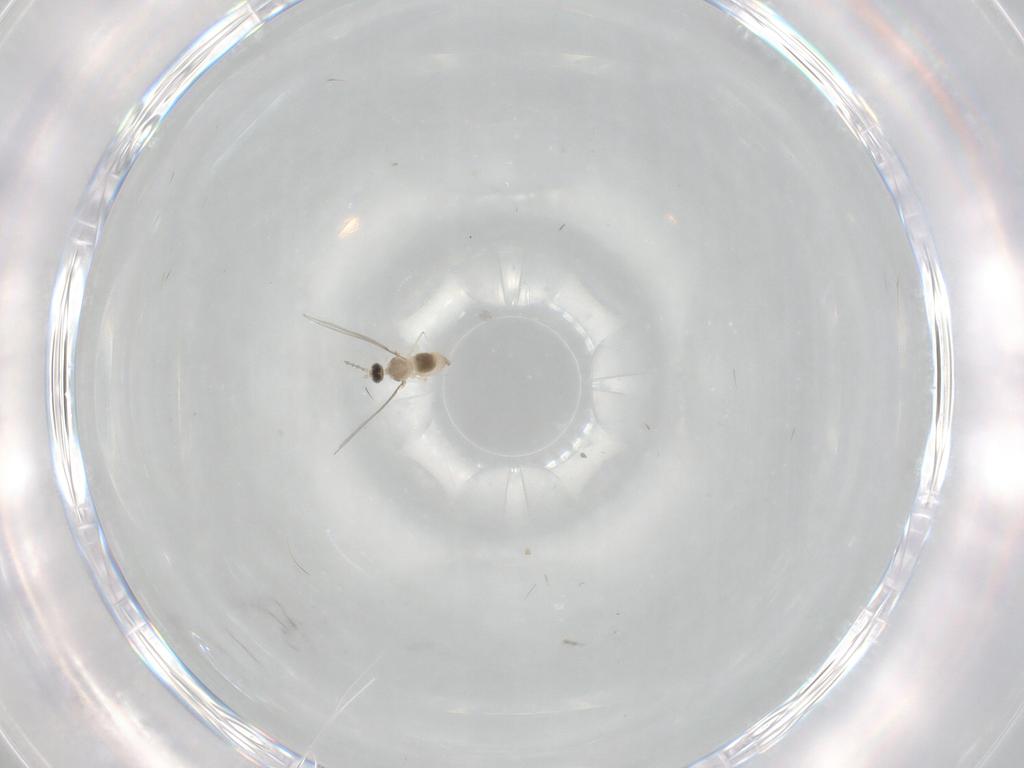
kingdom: Animalia
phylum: Arthropoda
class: Insecta
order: Diptera
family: Cecidomyiidae
